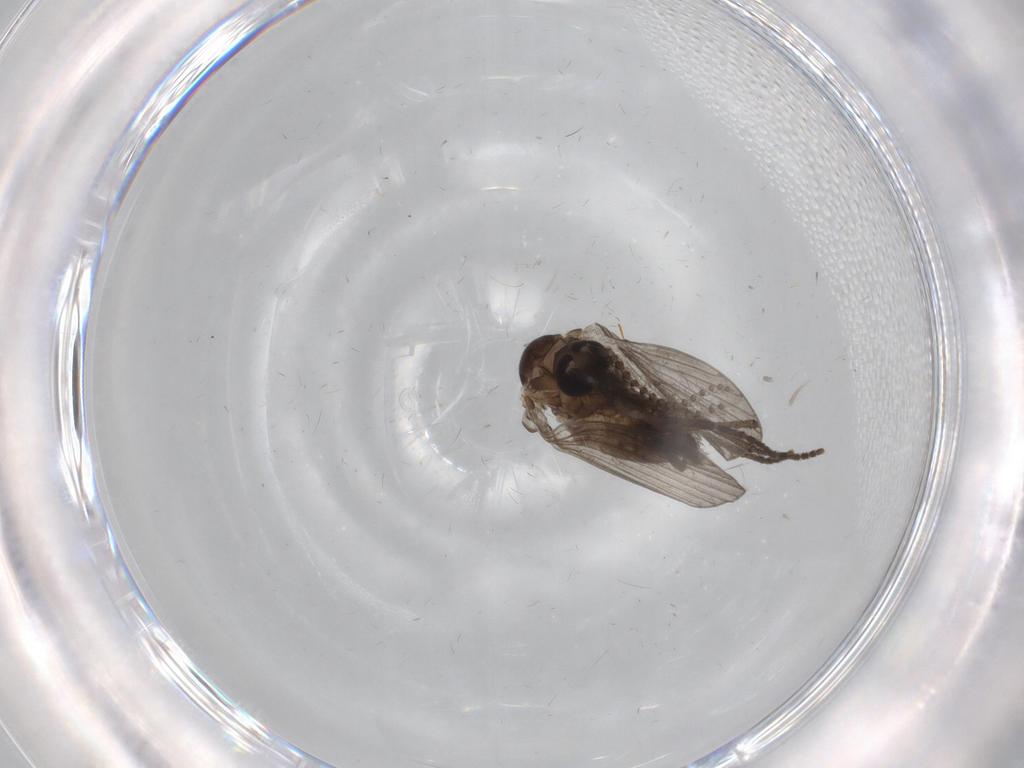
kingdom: Animalia
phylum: Arthropoda
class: Insecta
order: Diptera
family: Psychodidae
